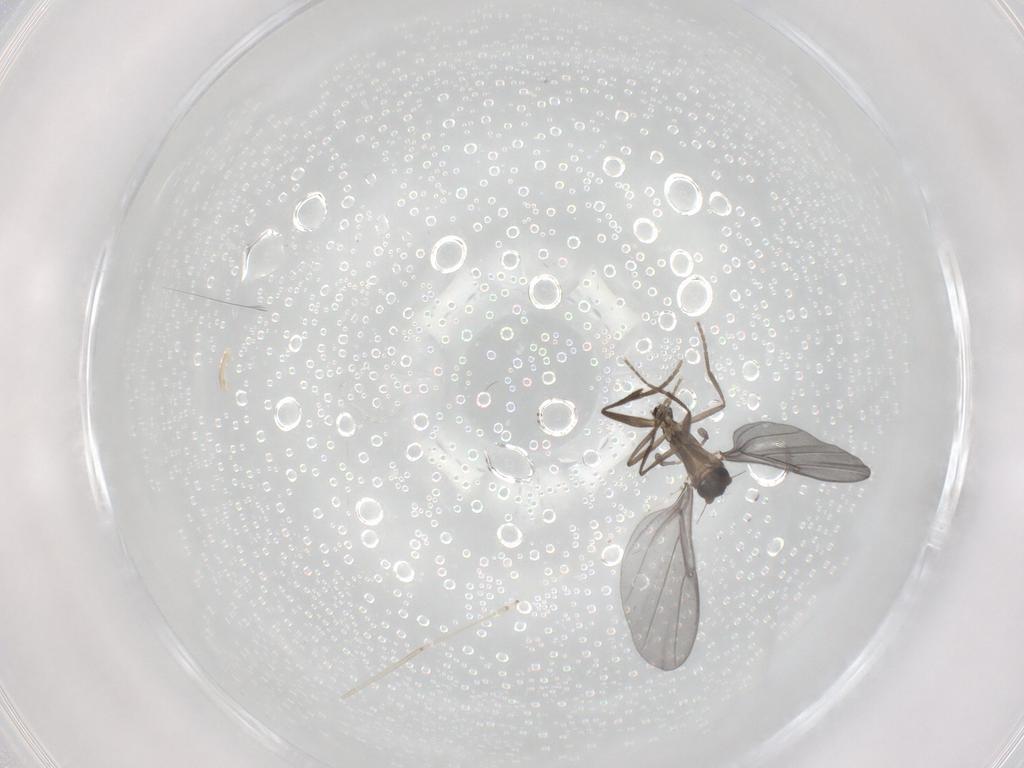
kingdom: Animalia
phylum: Arthropoda
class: Insecta
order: Diptera
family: Phoridae
